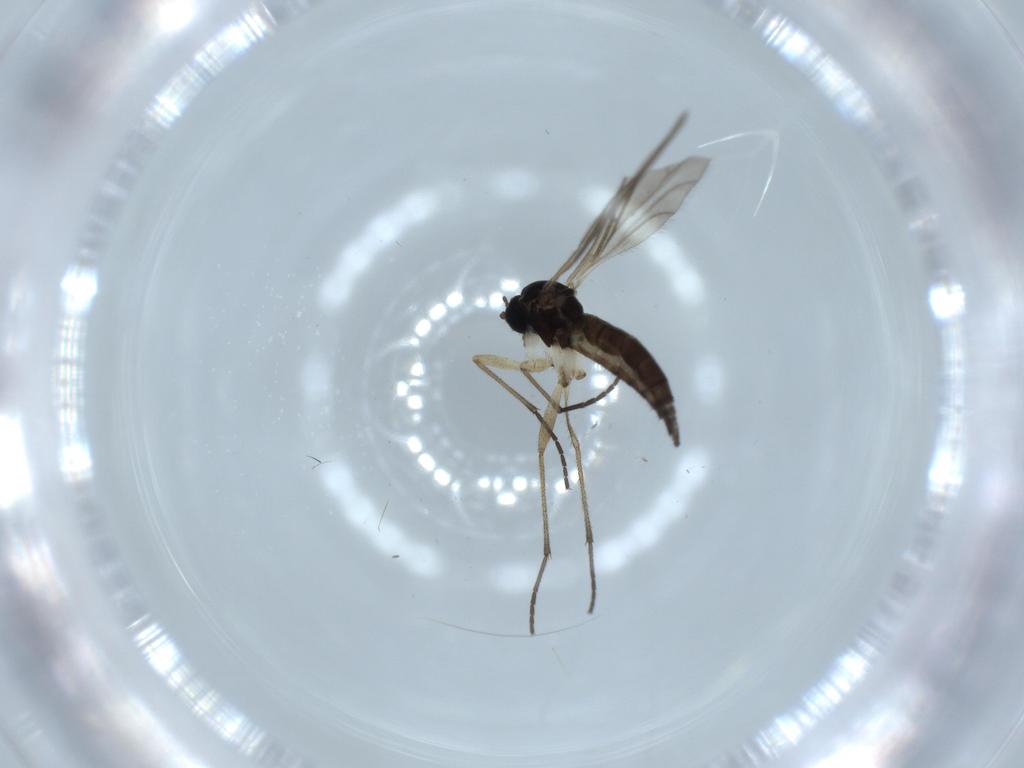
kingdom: Animalia
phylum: Arthropoda
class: Insecta
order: Diptera
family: Sciaridae
